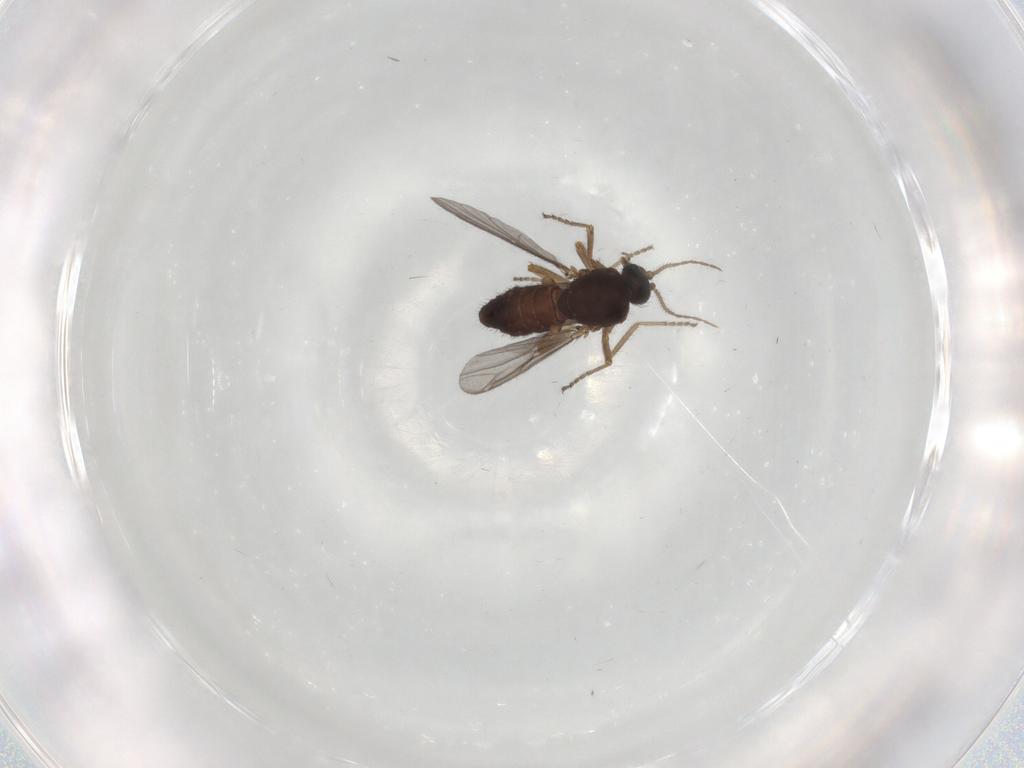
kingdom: Animalia
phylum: Arthropoda
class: Insecta
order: Diptera
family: Ceratopogonidae
